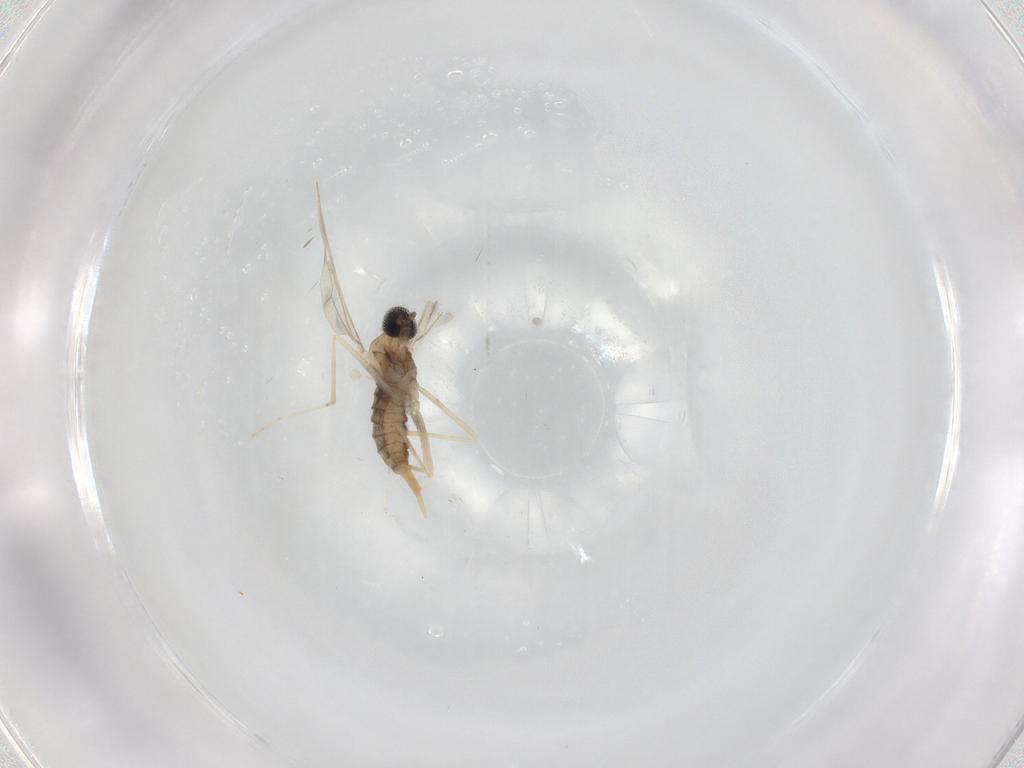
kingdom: Animalia
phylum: Arthropoda
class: Insecta
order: Diptera
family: Cecidomyiidae
